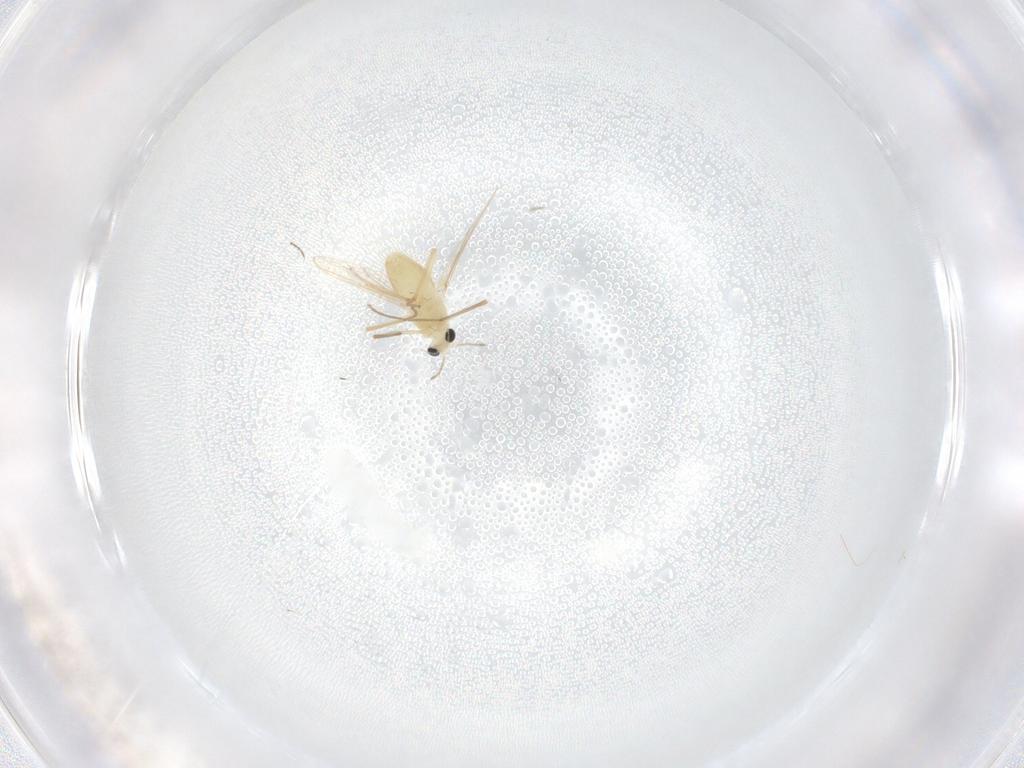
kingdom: Animalia
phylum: Arthropoda
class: Insecta
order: Diptera
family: Chironomidae
